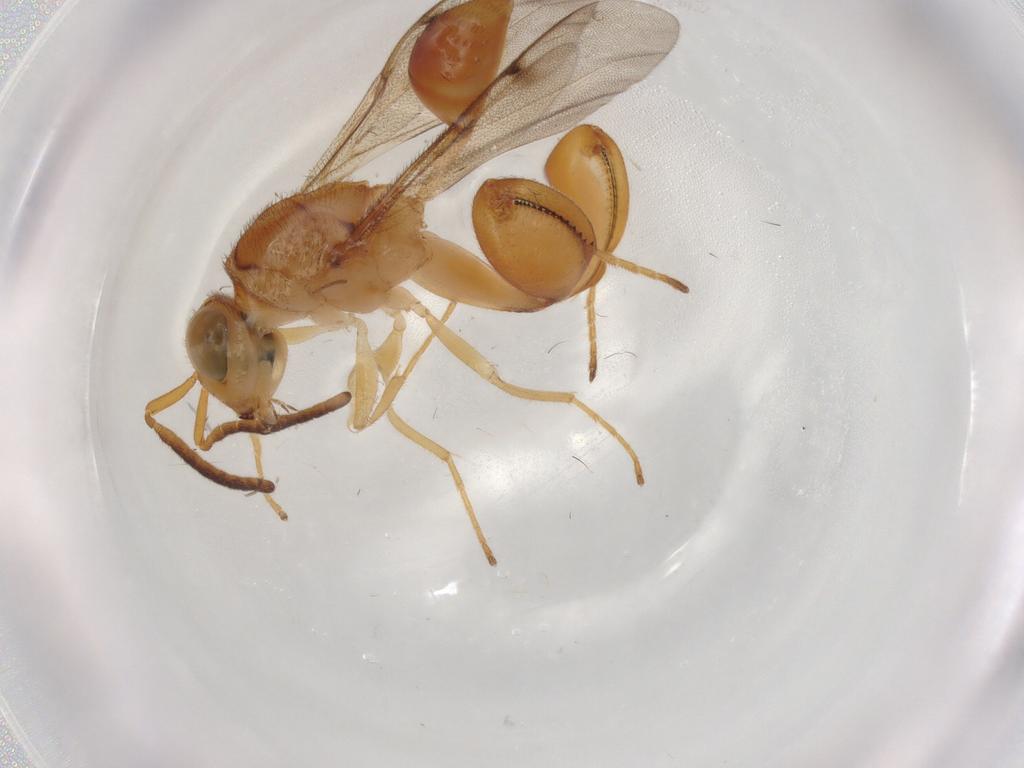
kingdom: Animalia
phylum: Arthropoda
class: Insecta
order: Hymenoptera
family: Chalcididae
